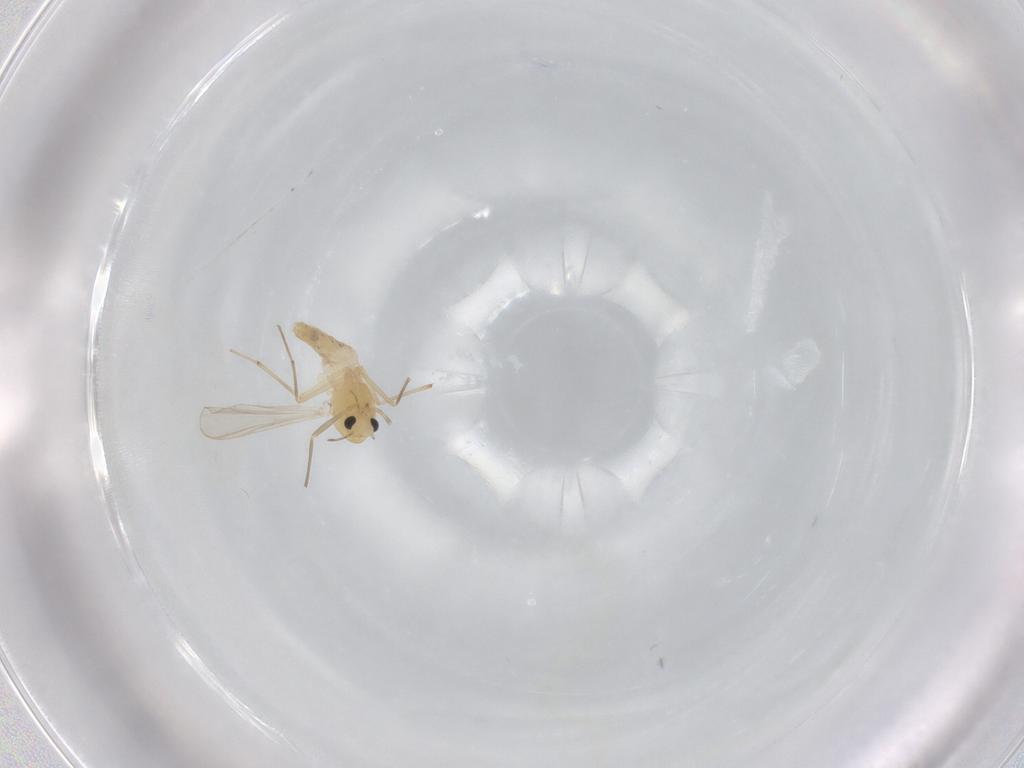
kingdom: Animalia
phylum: Arthropoda
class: Insecta
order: Diptera
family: Chironomidae
